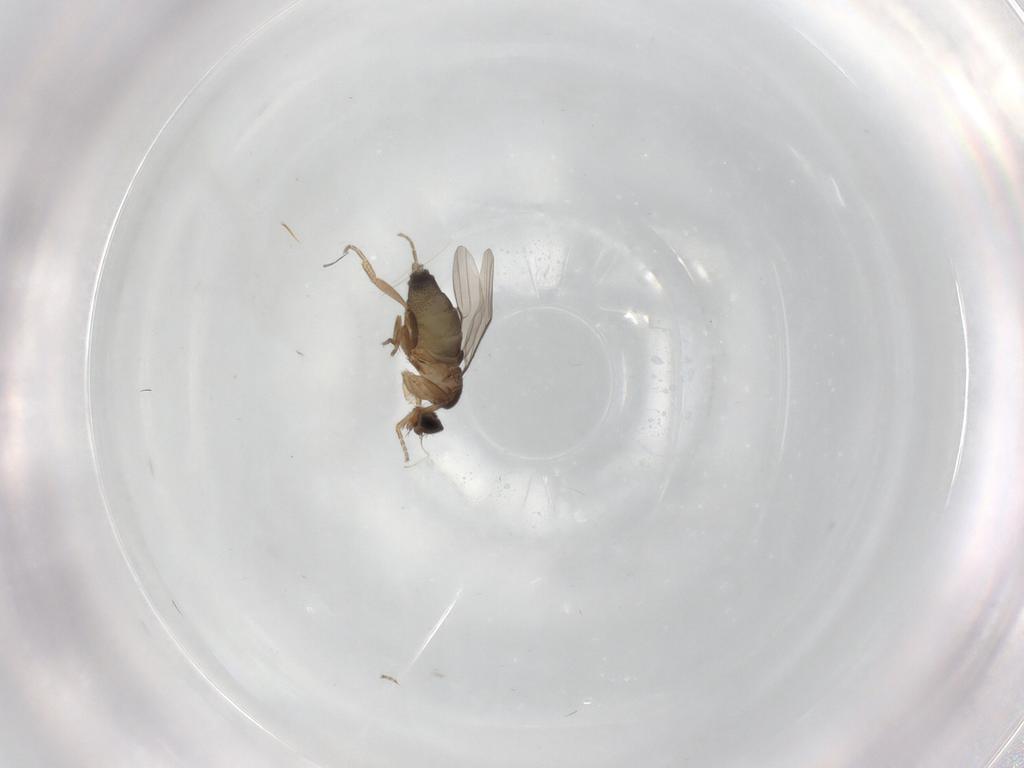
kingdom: Animalia
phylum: Arthropoda
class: Insecta
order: Diptera
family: Phoridae
